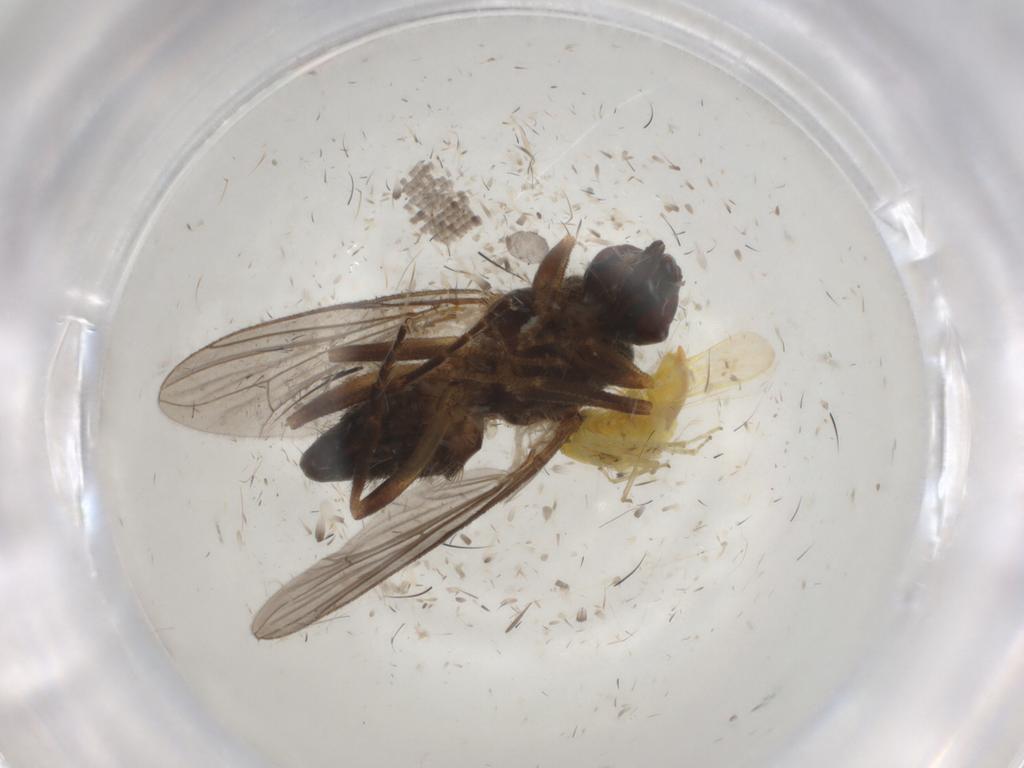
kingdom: Animalia
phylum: Arthropoda
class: Insecta
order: Diptera
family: Glossinidae
